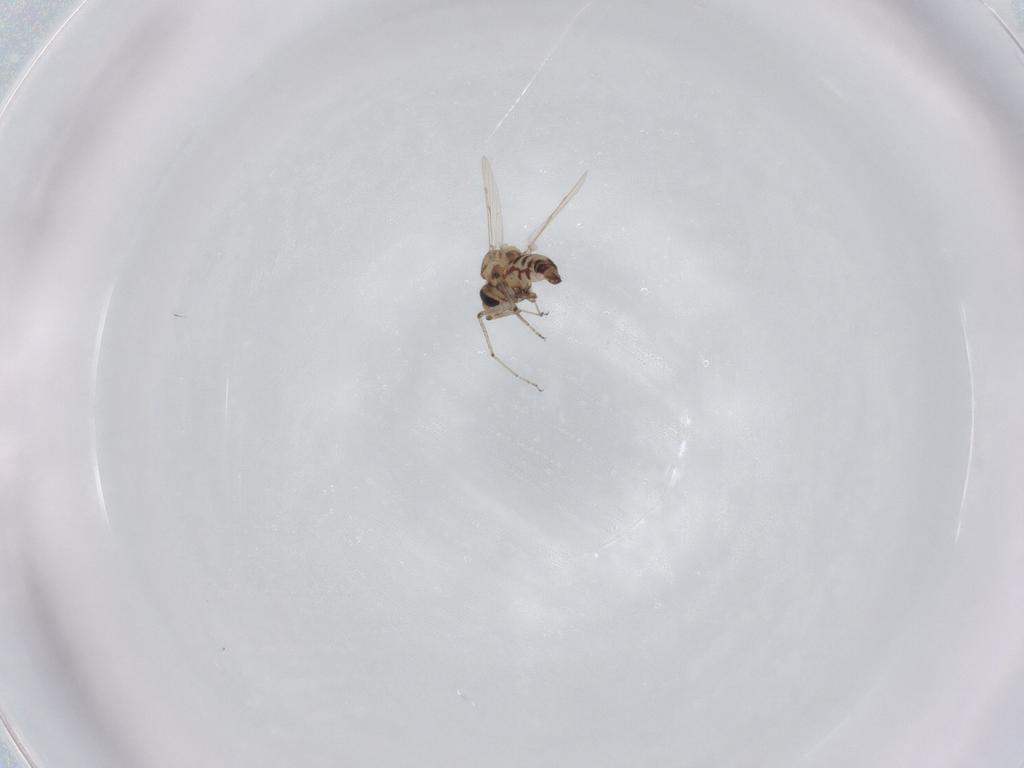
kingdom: Animalia
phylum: Arthropoda
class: Insecta
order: Diptera
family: Ceratopogonidae
